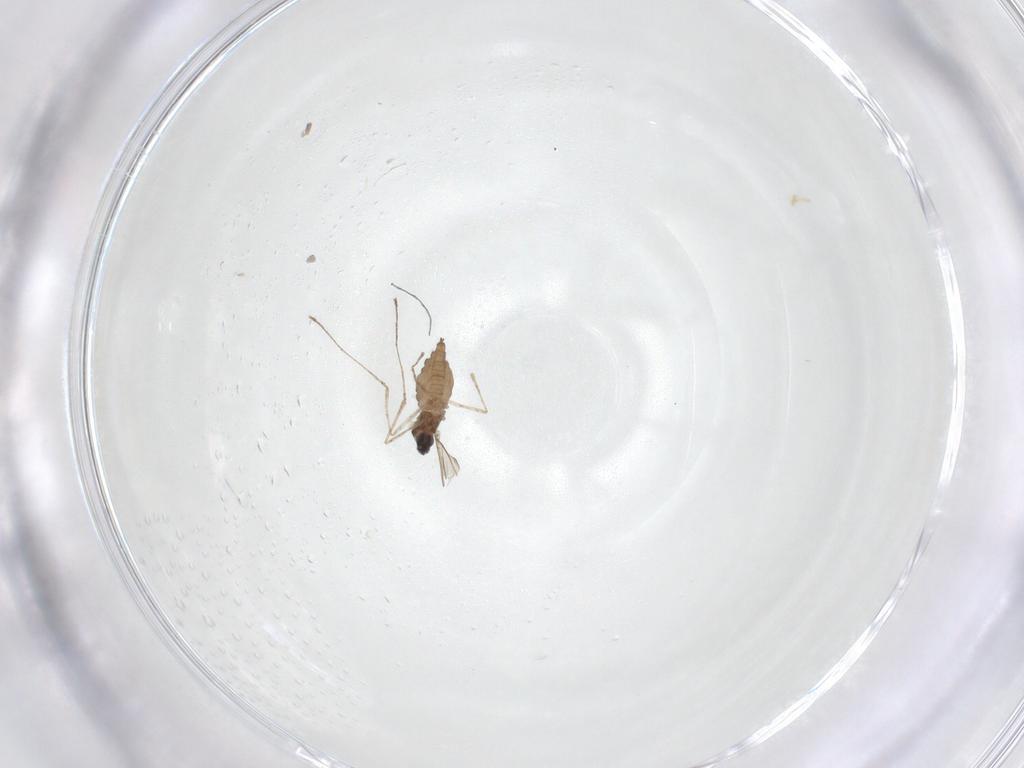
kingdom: Animalia
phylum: Arthropoda
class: Insecta
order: Diptera
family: Cecidomyiidae
